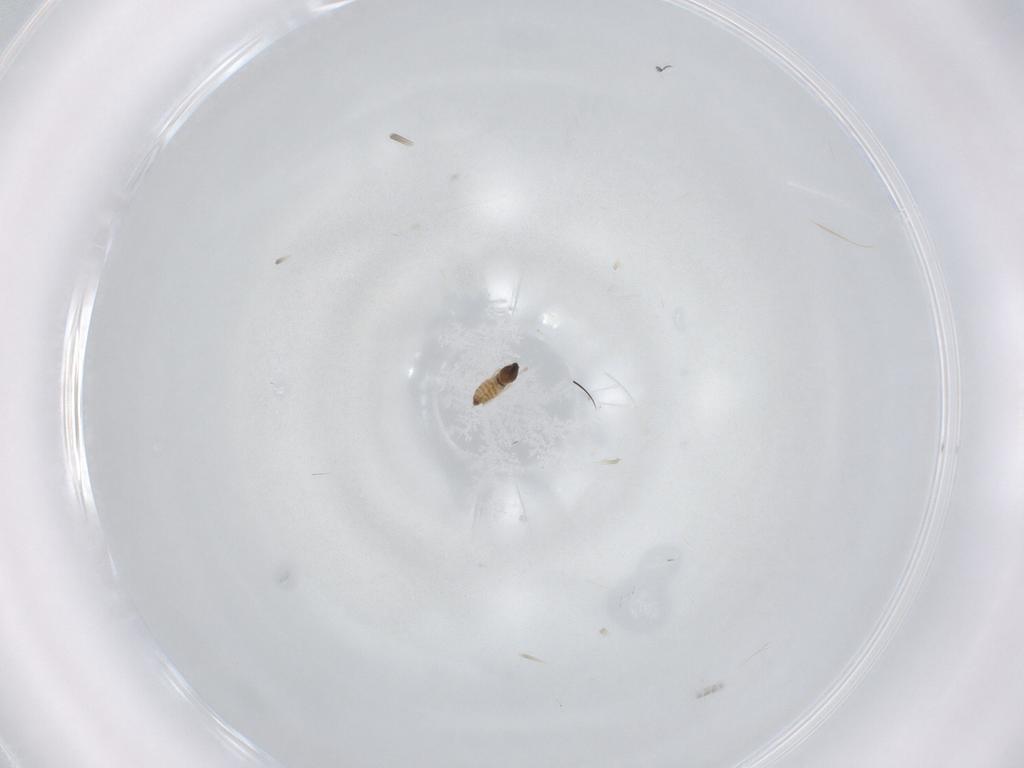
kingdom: Animalia
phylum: Arthropoda
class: Insecta
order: Diptera
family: Cecidomyiidae
